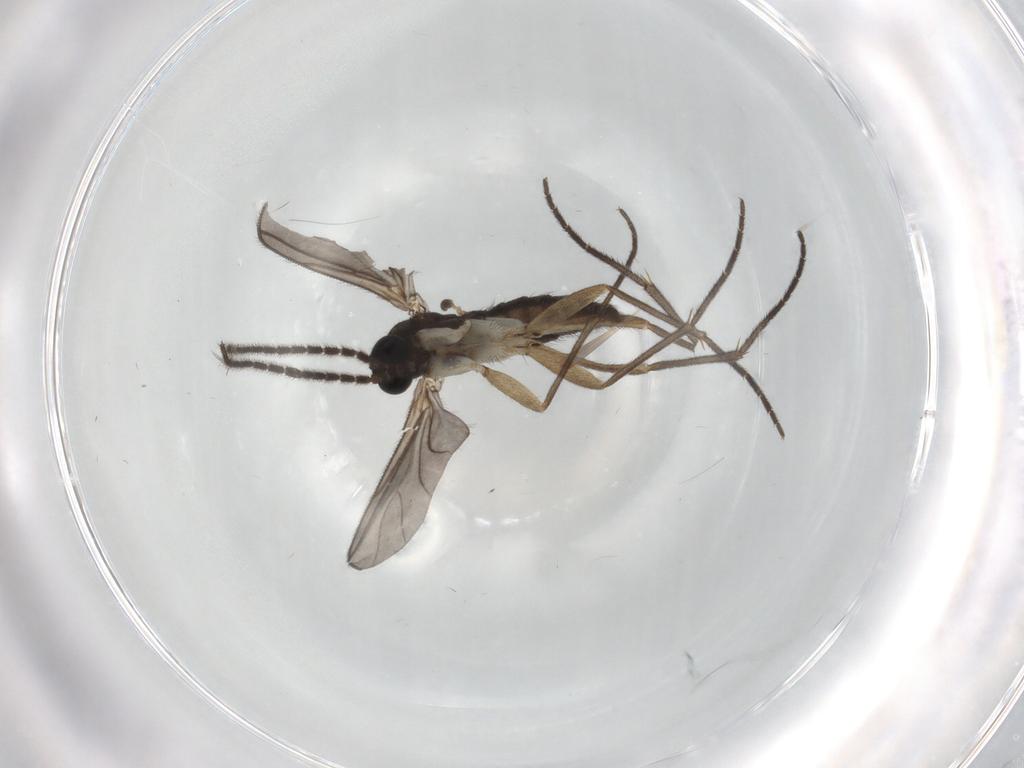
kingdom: Animalia
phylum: Arthropoda
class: Insecta
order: Diptera
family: Sciaridae
